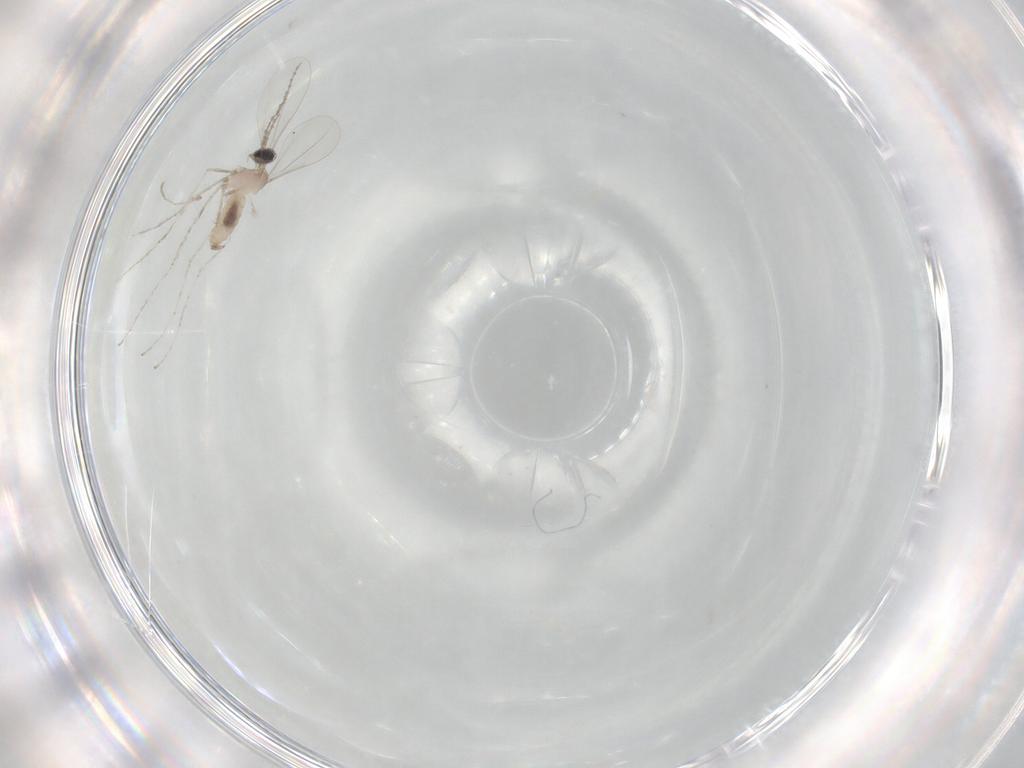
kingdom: Animalia
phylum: Arthropoda
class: Insecta
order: Diptera
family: Cecidomyiidae
